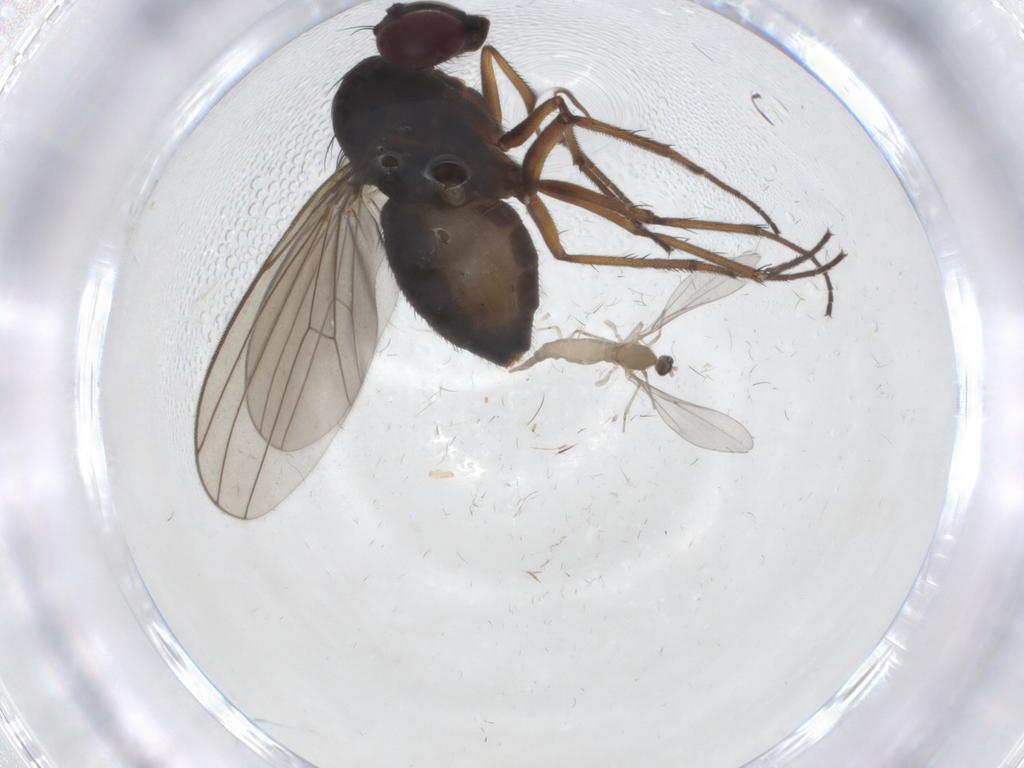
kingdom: Animalia
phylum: Arthropoda
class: Insecta
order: Diptera
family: Dolichopodidae
